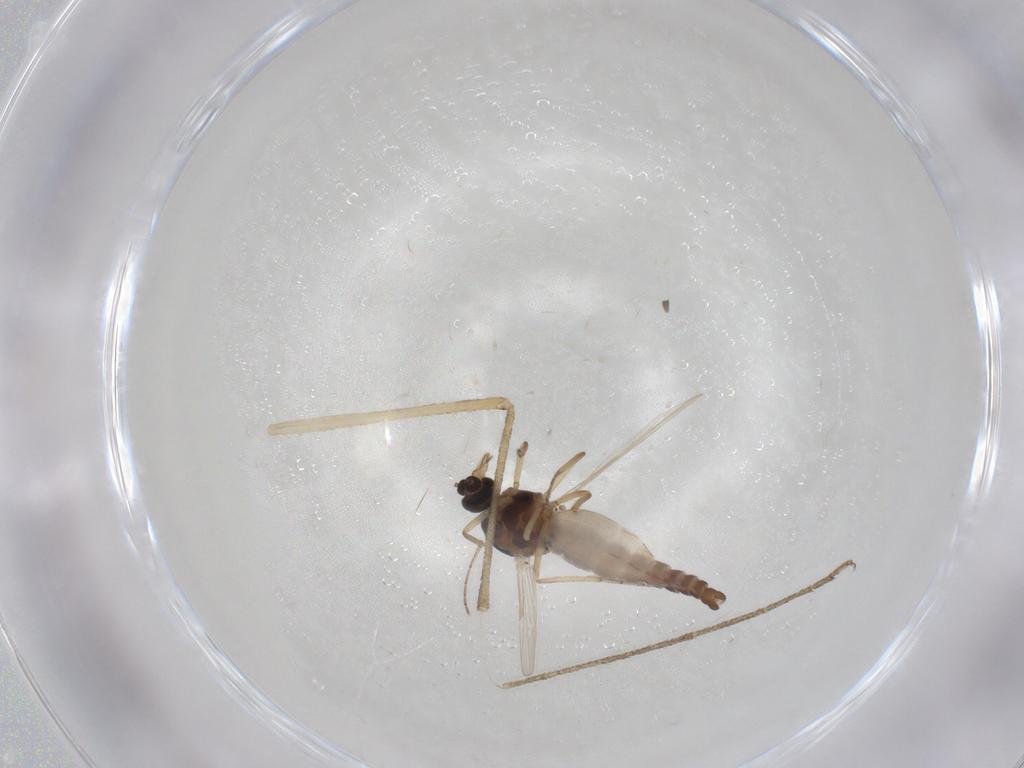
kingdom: Animalia
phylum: Arthropoda
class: Insecta
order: Diptera
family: Culicidae
